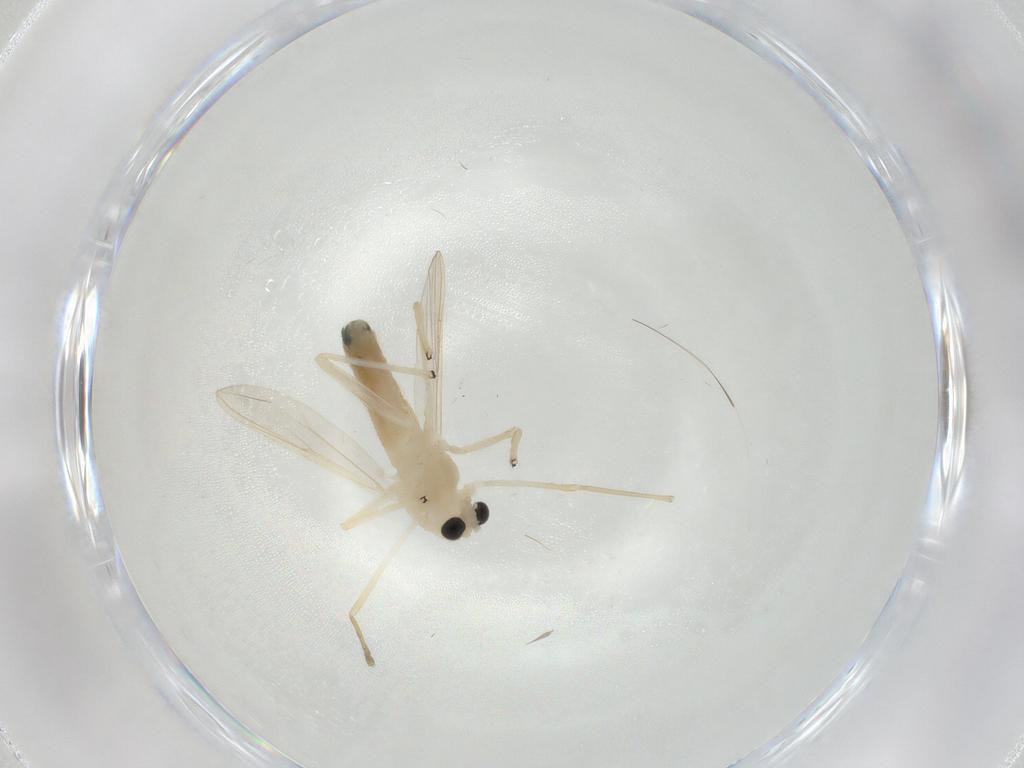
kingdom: Animalia
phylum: Arthropoda
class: Insecta
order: Diptera
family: Chironomidae
